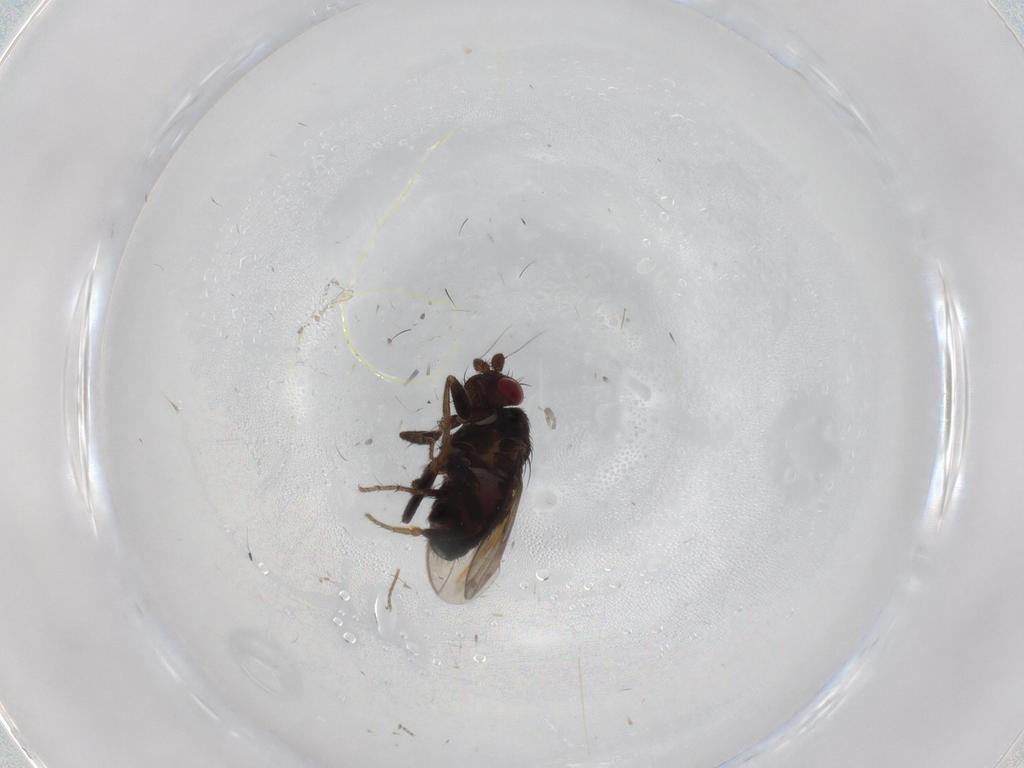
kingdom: Animalia
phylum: Arthropoda
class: Insecta
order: Diptera
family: Sphaeroceridae
